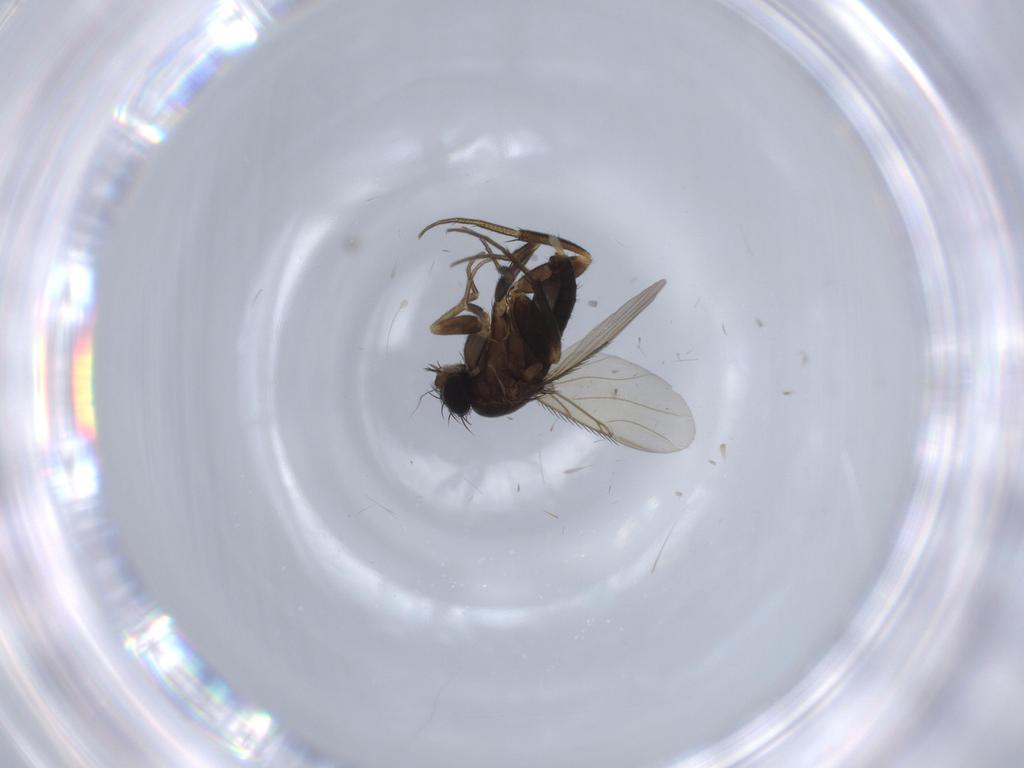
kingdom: Animalia
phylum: Arthropoda
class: Insecta
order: Diptera
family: Phoridae
